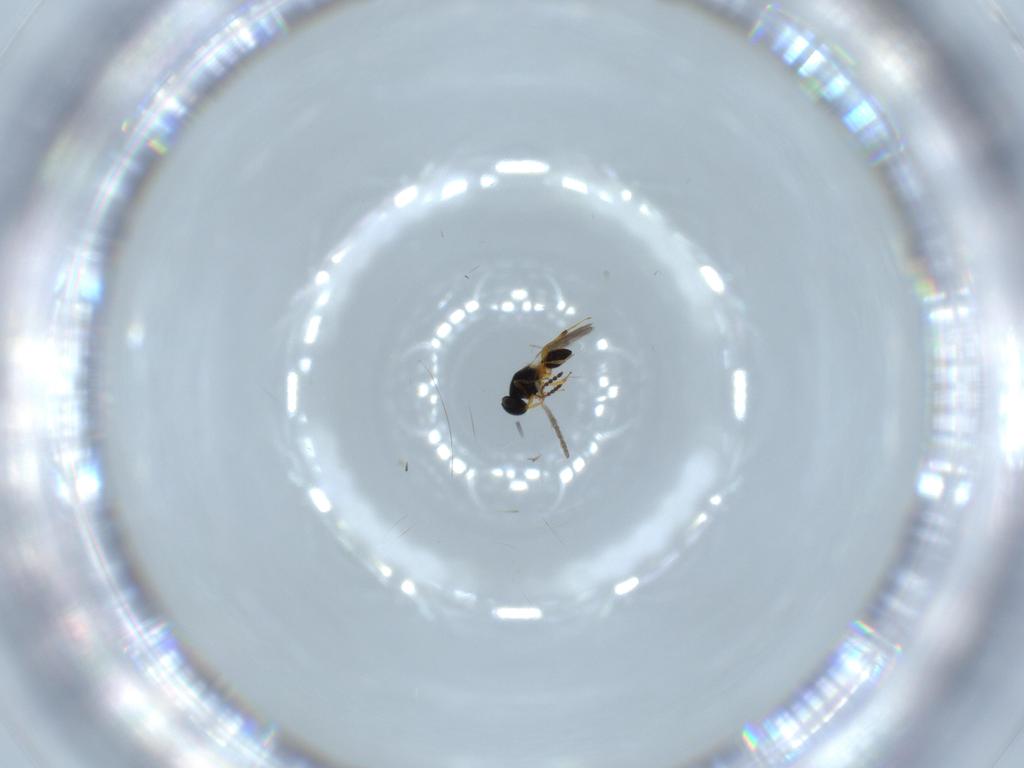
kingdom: Animalia
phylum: Arthropoda
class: Insecta
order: Hymenoptera
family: Platygastridae
